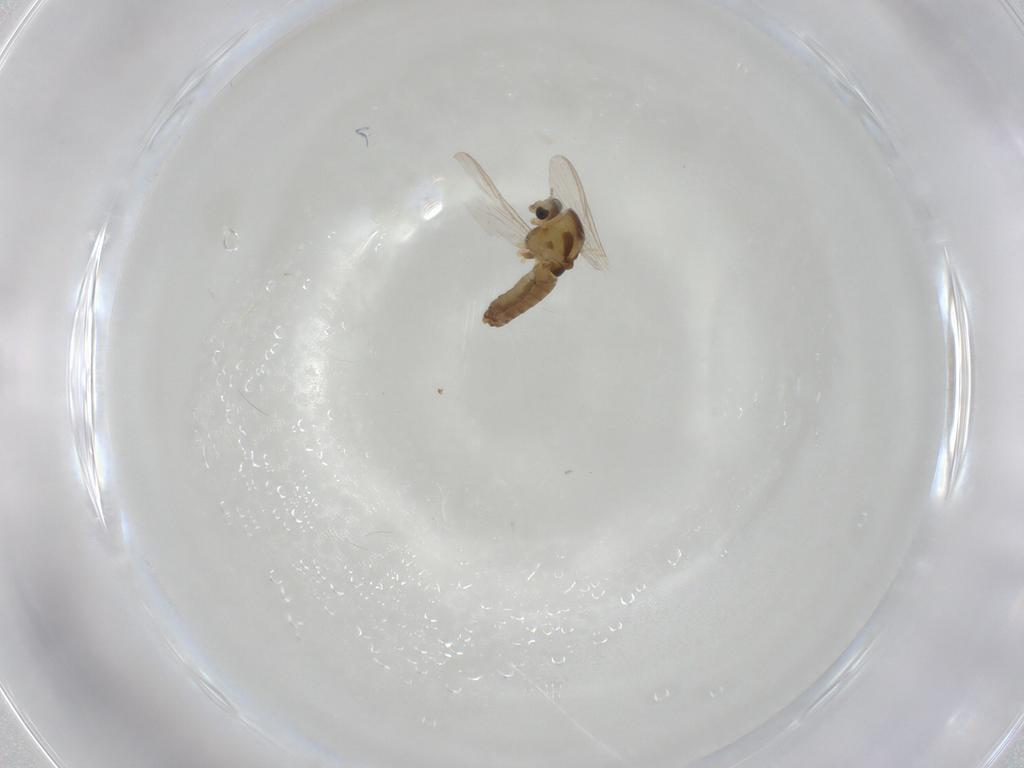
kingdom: Animalia
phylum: Arthropoda
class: Insecta
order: Diptera
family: Chironomidae
